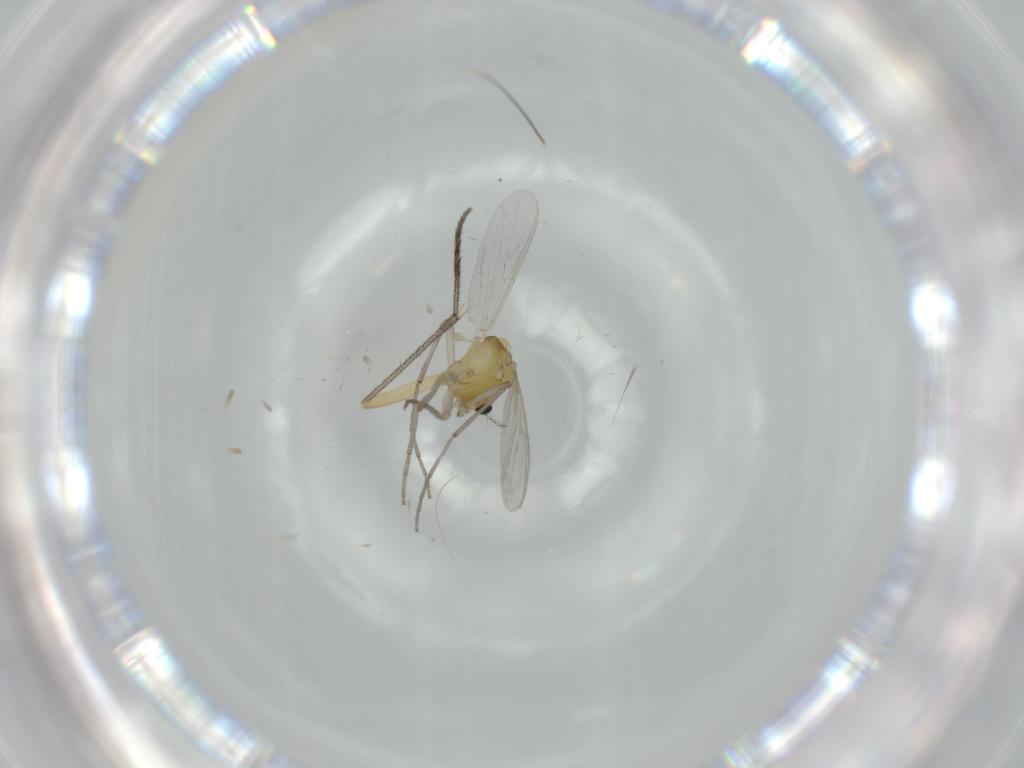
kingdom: Animalia
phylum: Arthropoda
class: Insecta
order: Diptera
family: Sciaridae
